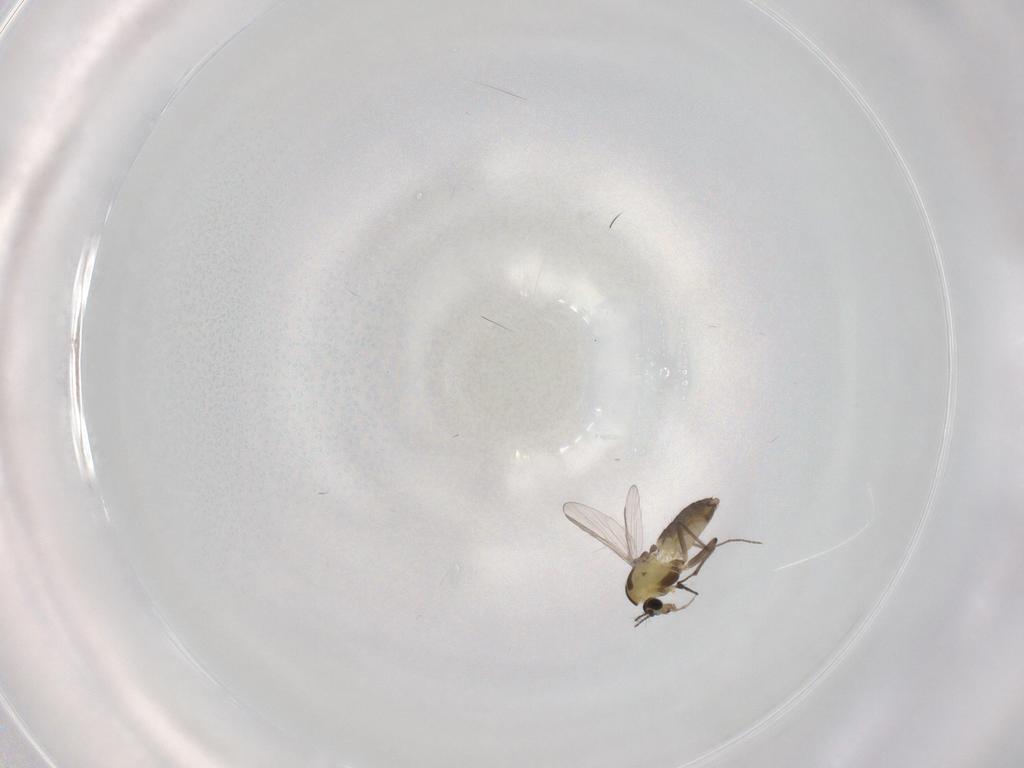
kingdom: Animalia
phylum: Arthropoda
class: Insecta
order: Diptera
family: Chironomidae
